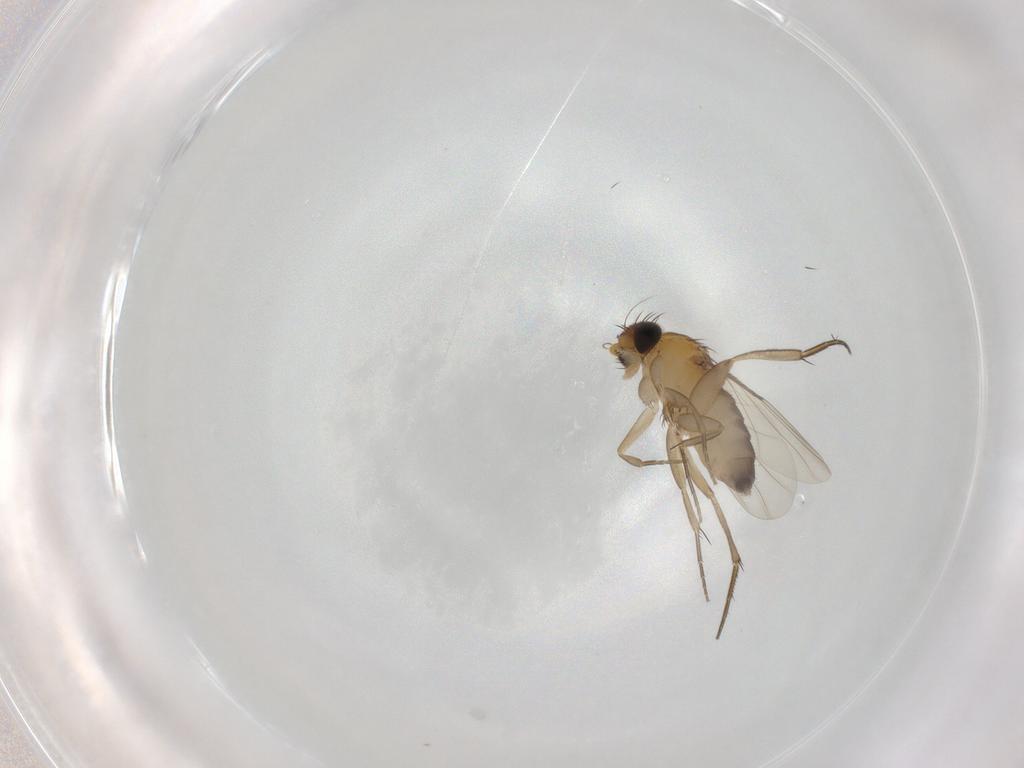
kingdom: Animalia
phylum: Arthropoda
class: Insecta
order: Diptera
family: Phoridae
